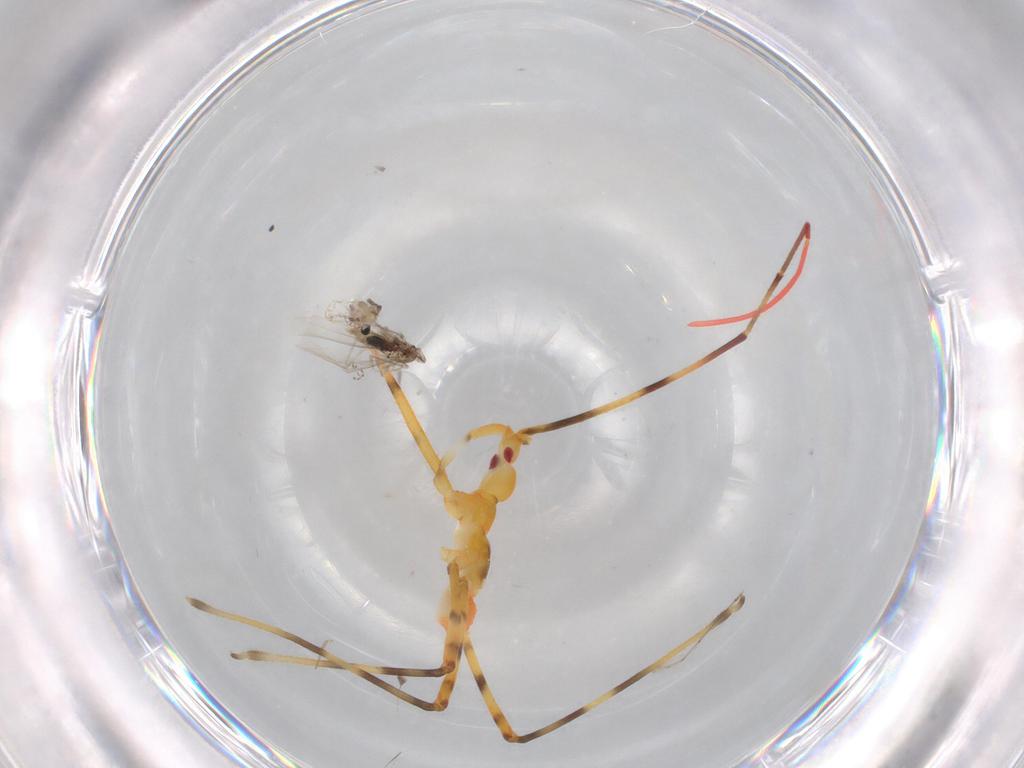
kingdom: Animalia
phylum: Arthropoda
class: Insecta
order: Hemiptera
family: Reduviidae
